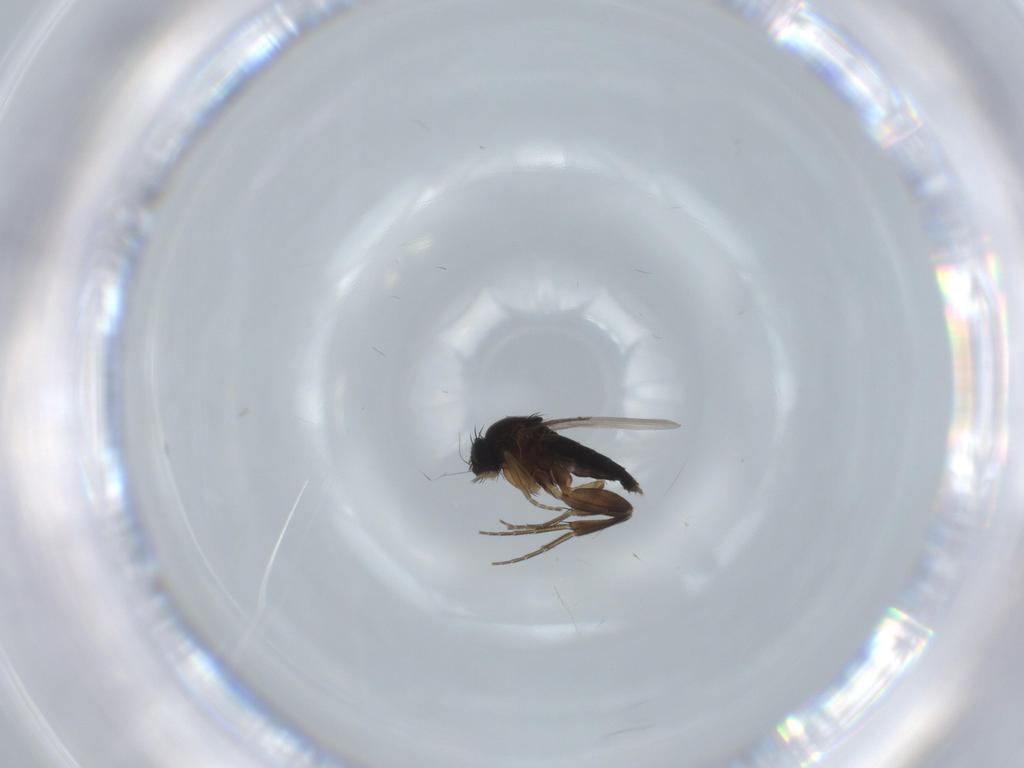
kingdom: Animalia
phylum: Arthropoda
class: Insecta
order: Diptera
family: Phoridae
